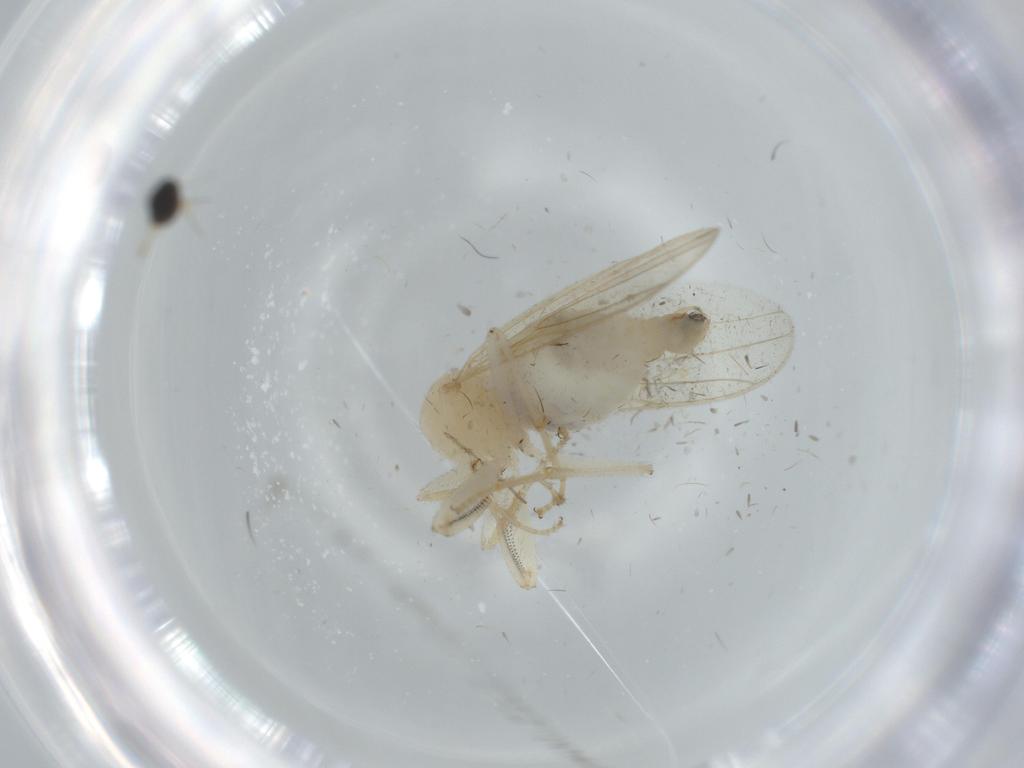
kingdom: Animalia
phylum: Arthropoda
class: Insecta
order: Diptera
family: Hybotidae
